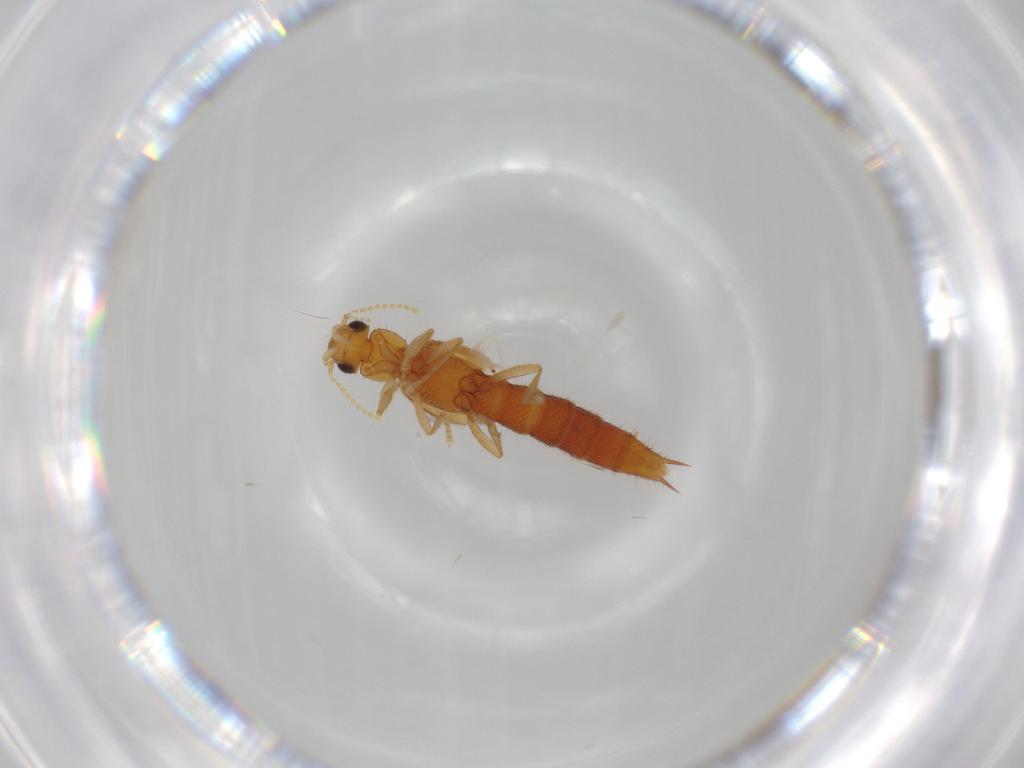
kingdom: Animalia
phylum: Arthropoda
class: Insecta
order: Coleoptera
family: Staphylinidae
